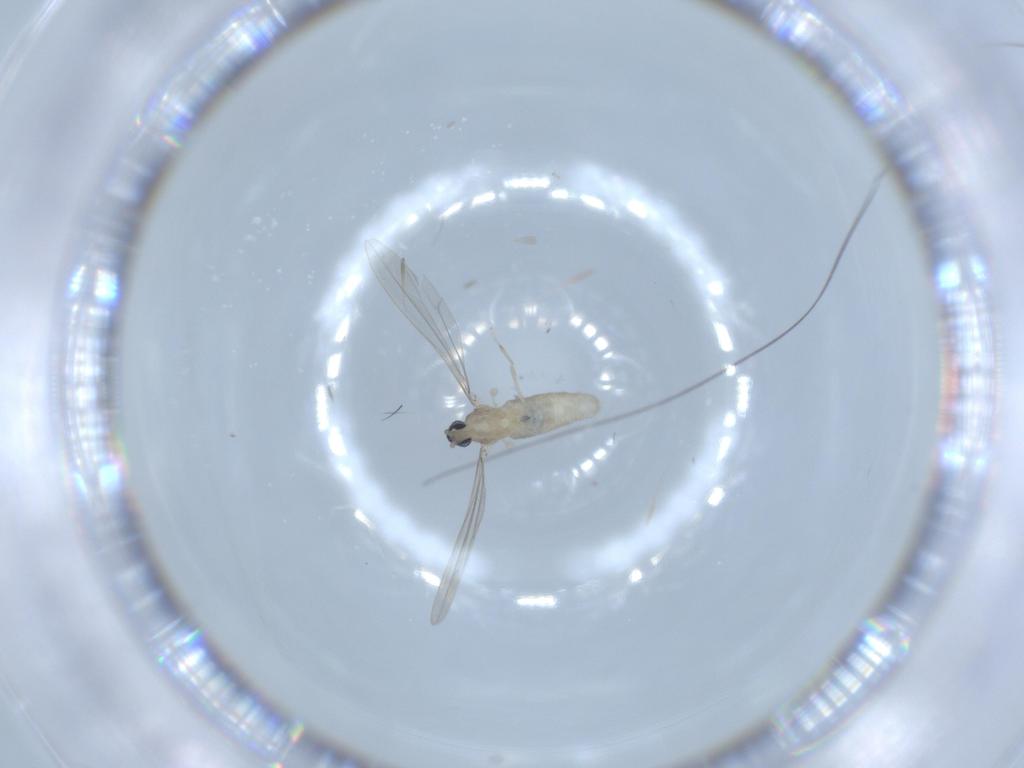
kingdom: Animalia
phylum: Arthropoda
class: Insecta
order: Diptera
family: Cecidomyiidae
